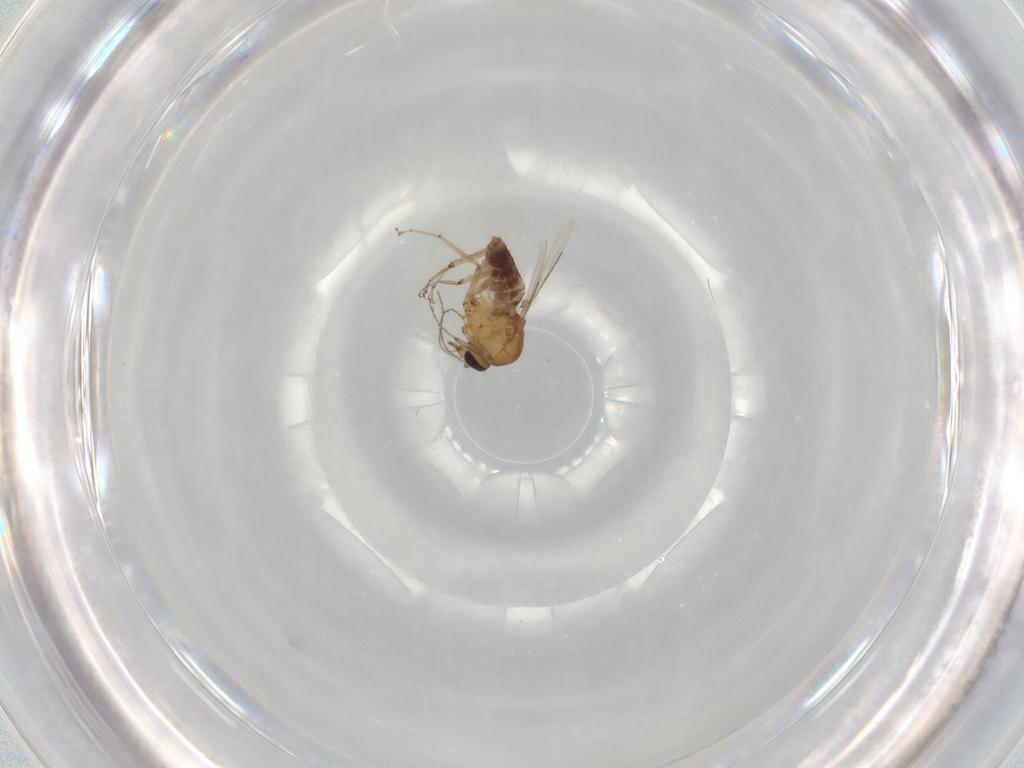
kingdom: Animalia
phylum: Arthropoda
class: Insecta
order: Diptera
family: Ceratopogonidae
